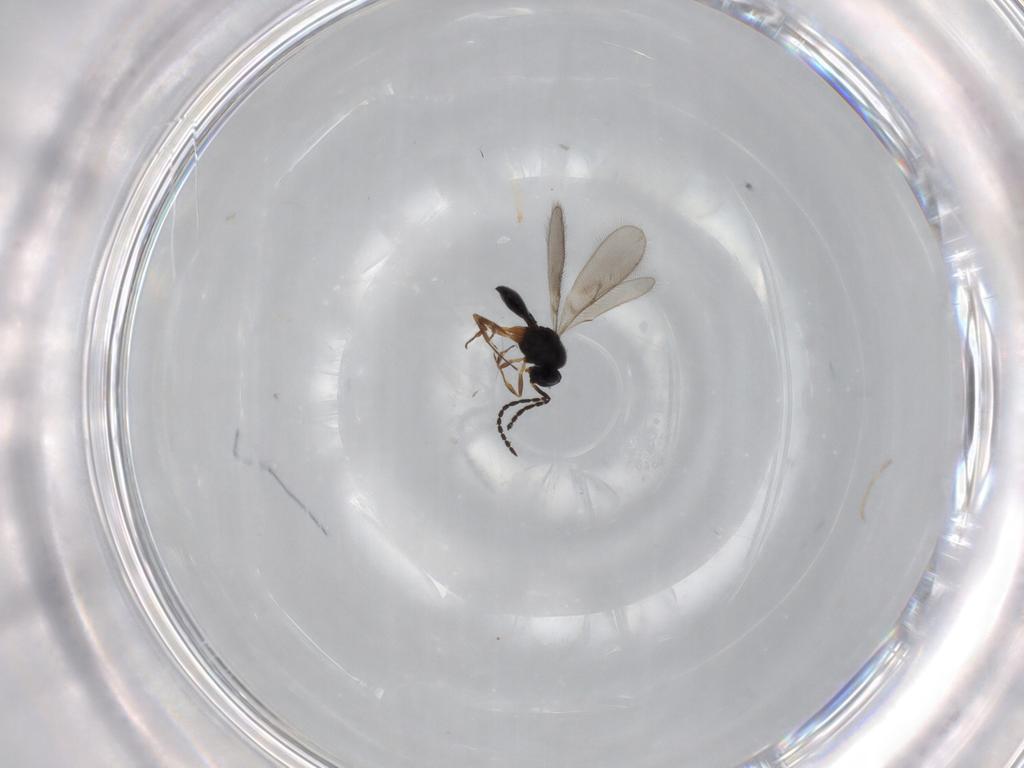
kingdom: Animalia
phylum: Arthropoda
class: Insecta
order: Hymenoptera
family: Scelionidae
